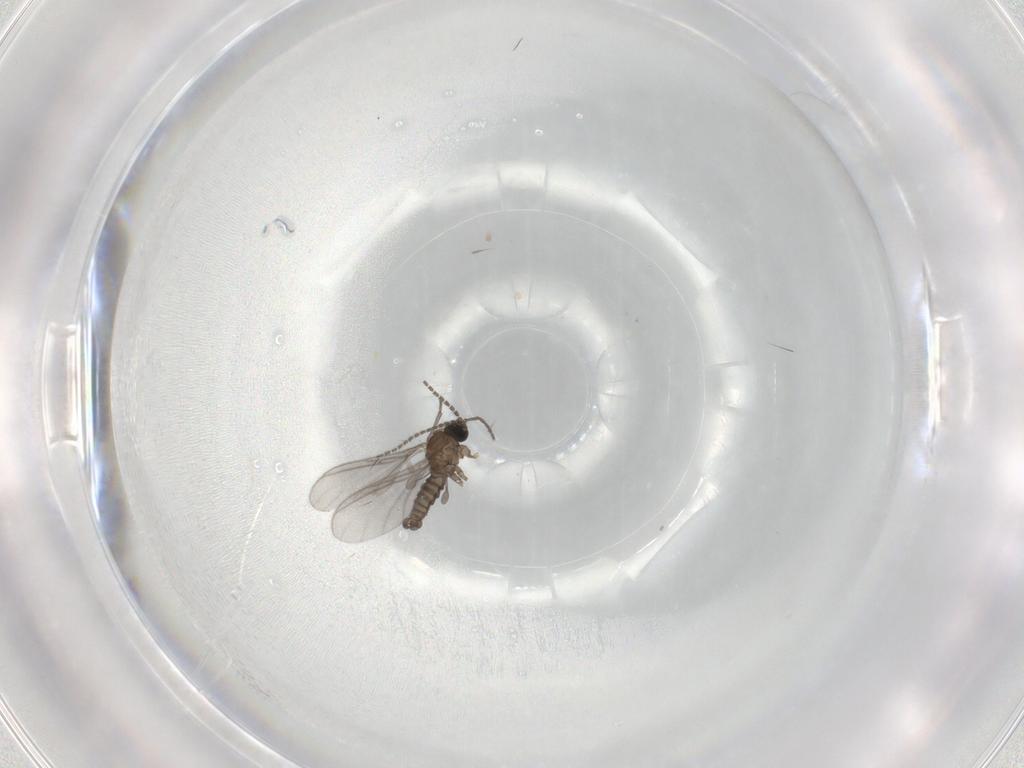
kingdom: Animalia
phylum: Arthropoda
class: Insecta
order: Diptera
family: Sciaridae
